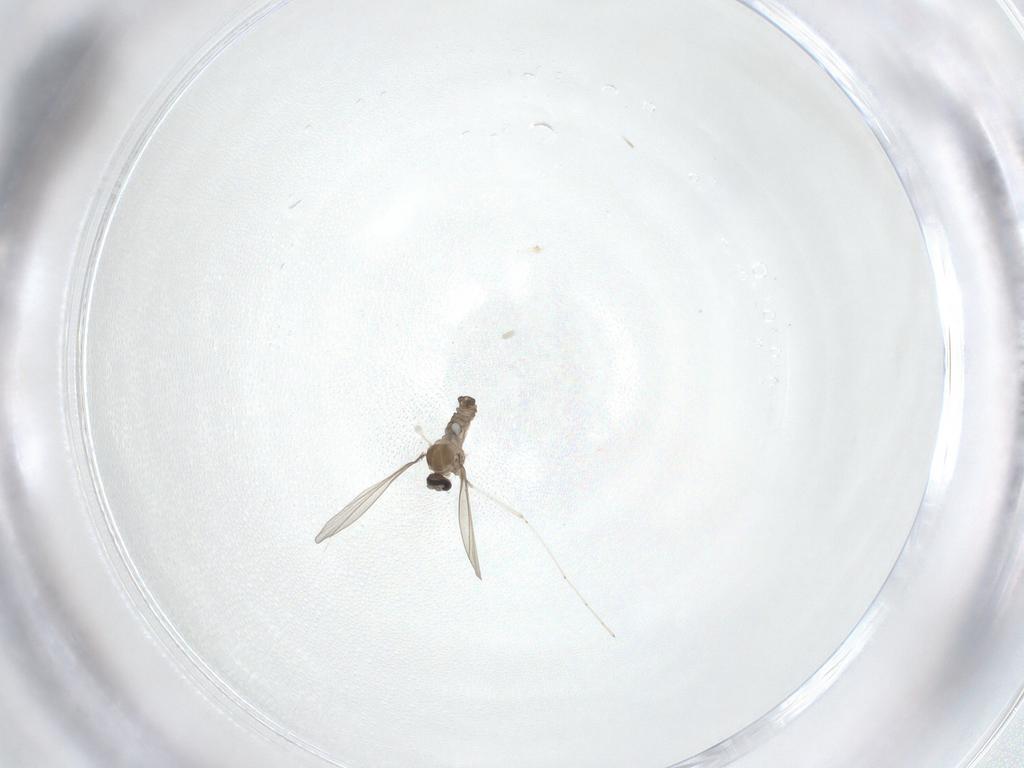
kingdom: Animalia
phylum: Arthropoda
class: Insecta
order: Diptera
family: Cecidomyiidae
